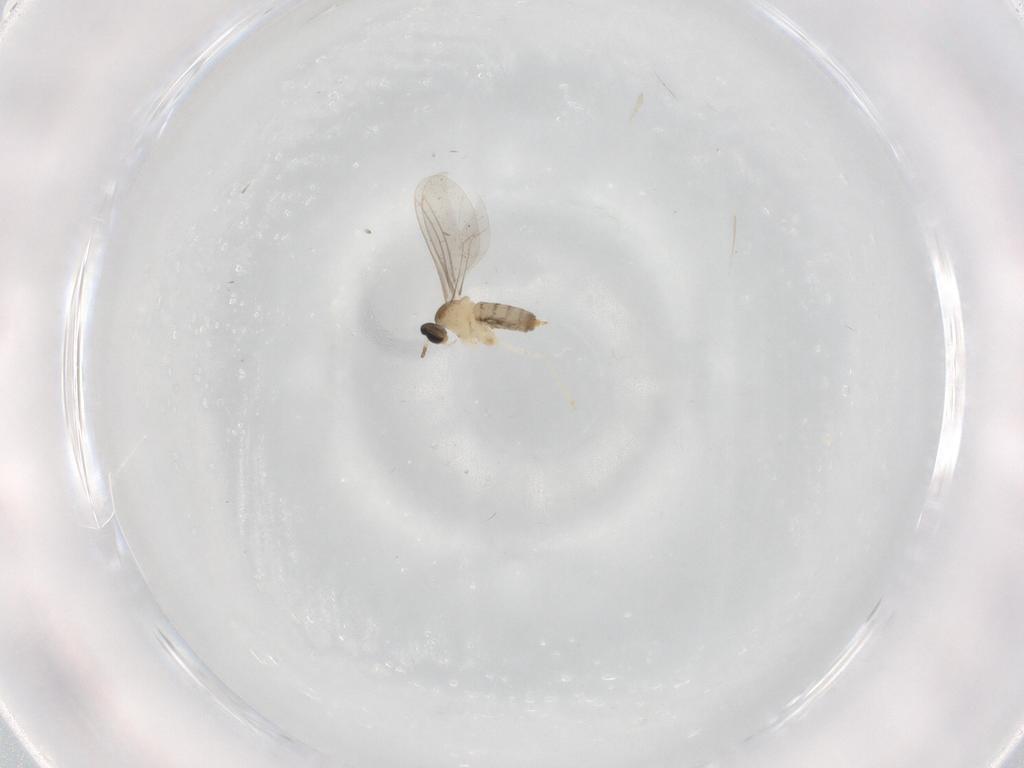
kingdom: Animalia
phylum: Arthropoda
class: Insecta
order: Diptera
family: Cecidomyiidae
